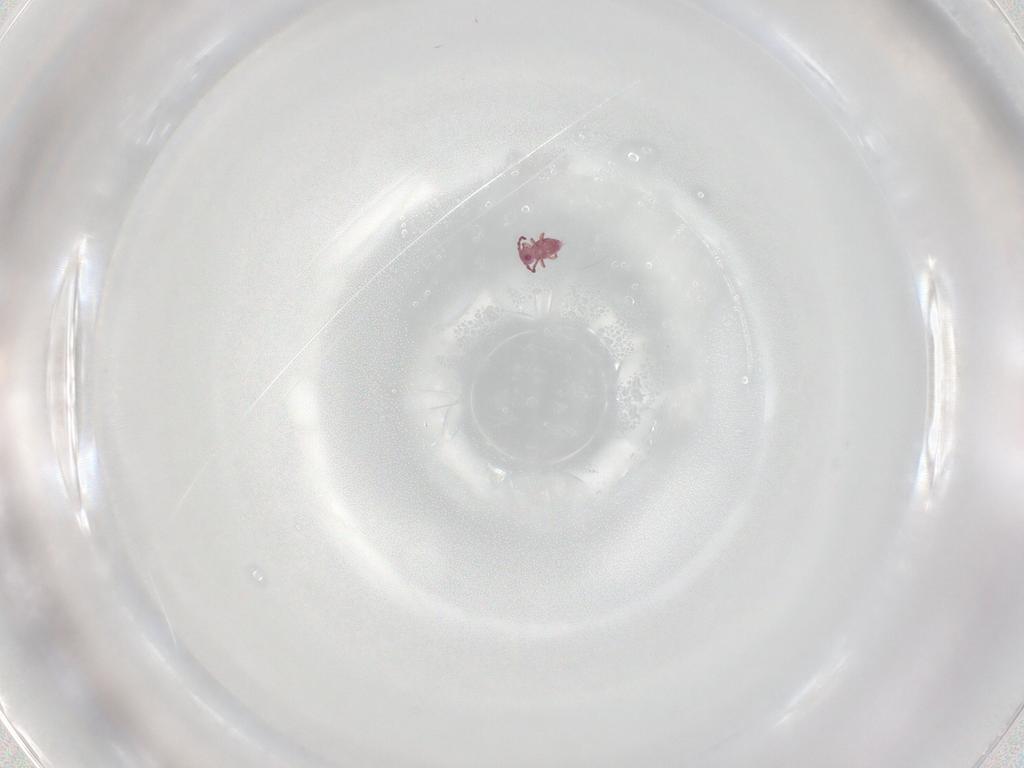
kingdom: Animalia
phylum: Arthropoda
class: Collembola
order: Symphypleona
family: Sminthurididae
